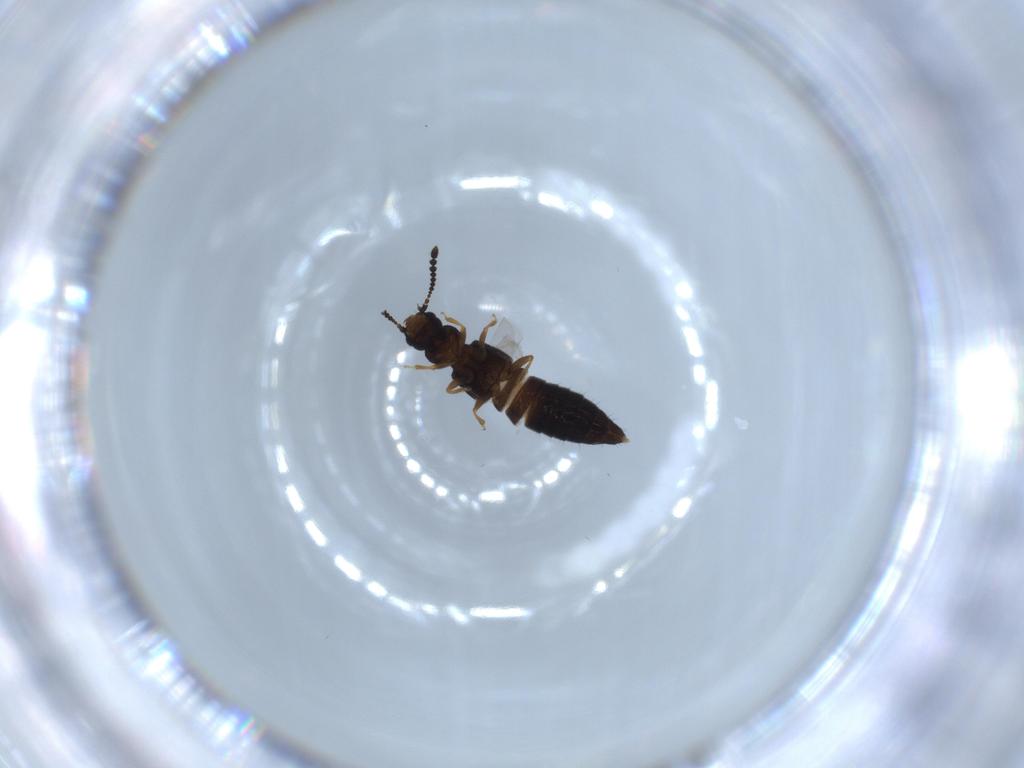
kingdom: Animalia
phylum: Arthropoda
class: Insecta
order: Coleoptera
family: Staphylinidae
